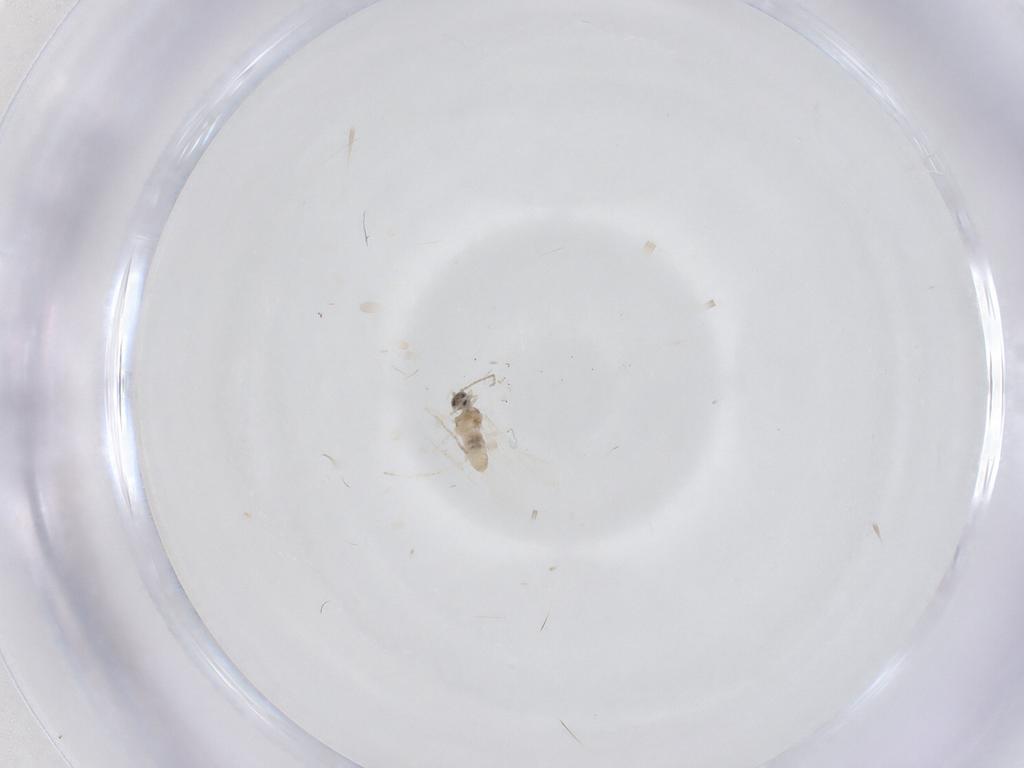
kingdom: Animalia
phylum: Arthropoda
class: Insecta
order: Diptera
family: Cecidomyiidae
